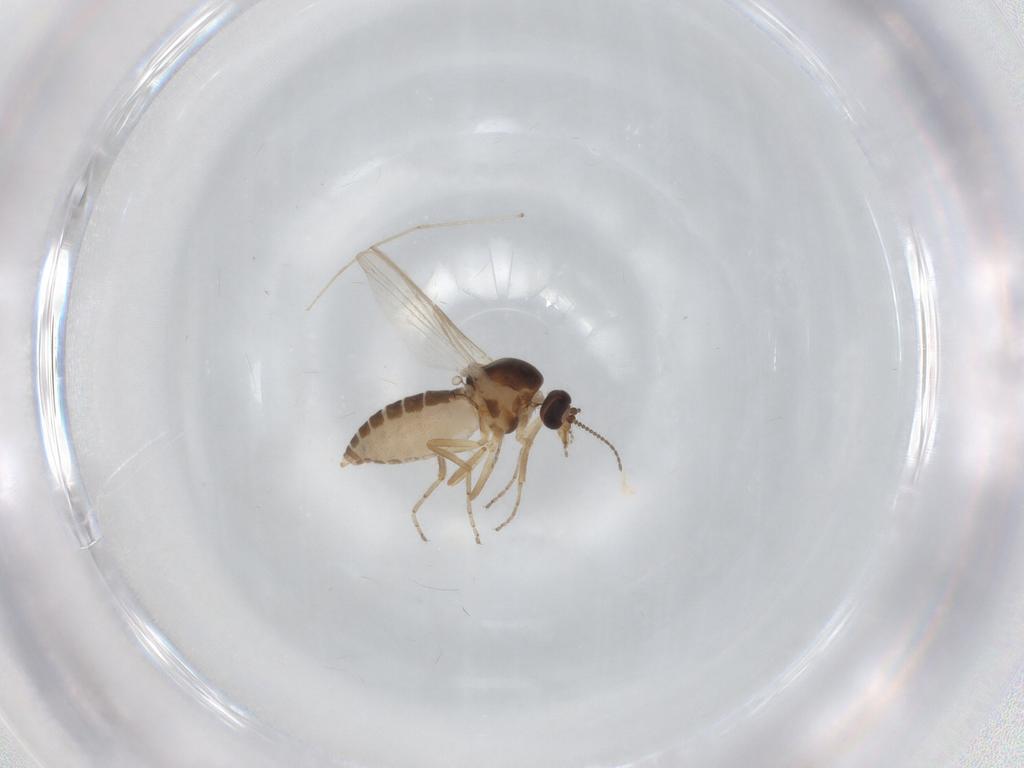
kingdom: Animalia
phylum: Arthropoda
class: Insecta
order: Diptera
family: Ceratopogonidae
